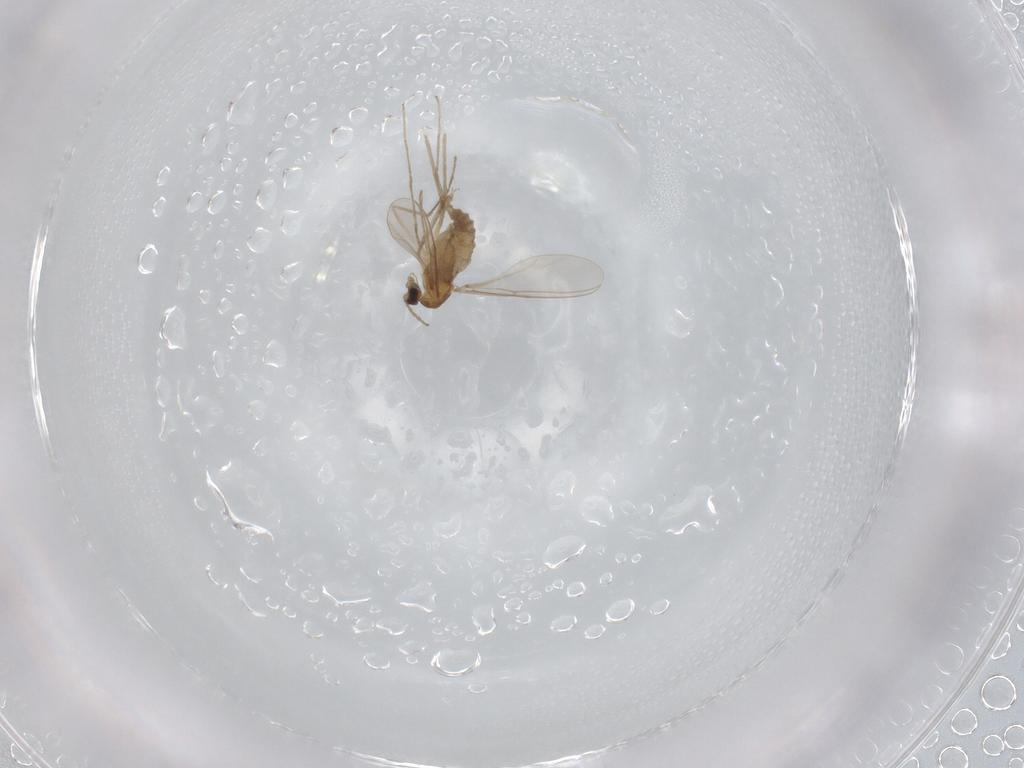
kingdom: Animalia
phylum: Arthropoda
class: Insecta
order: Diptera
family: Cecidomyiidae
